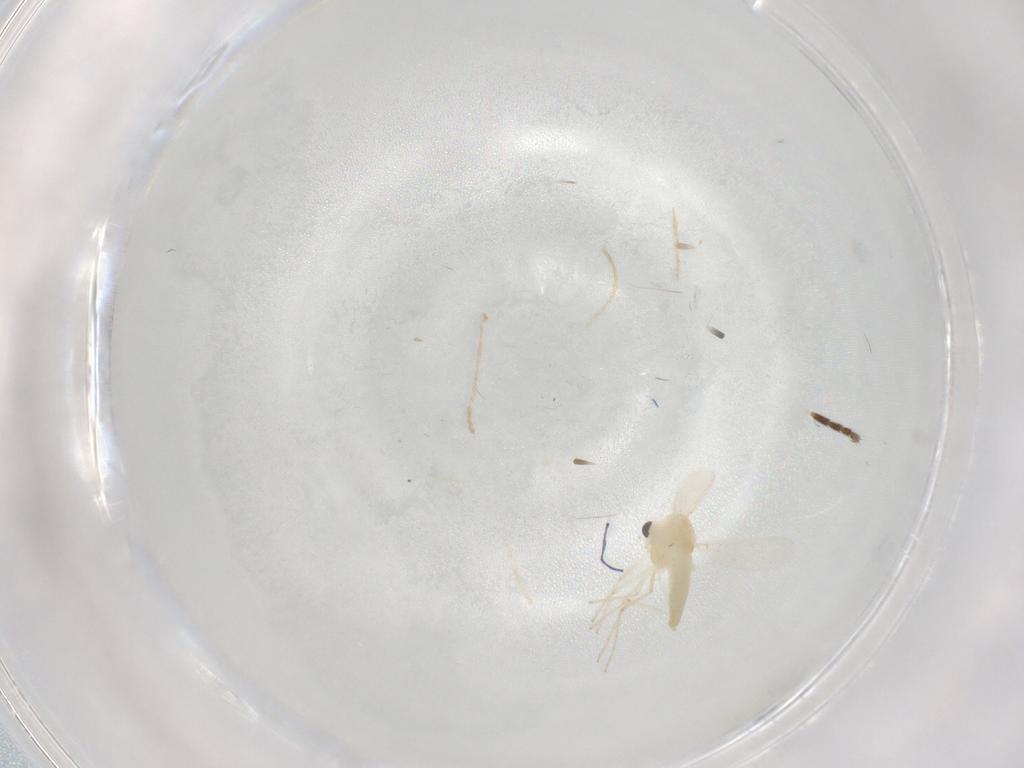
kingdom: Animalia
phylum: Arthropoda
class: Insecta
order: Diptera
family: Chironomidae
